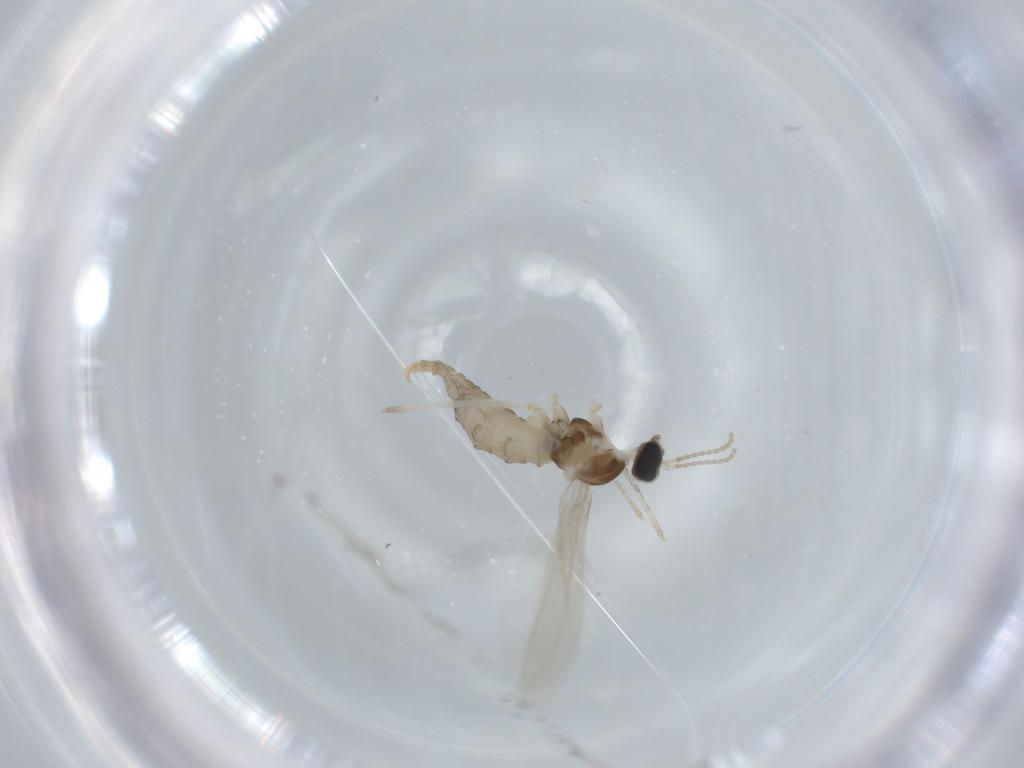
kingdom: Animalia
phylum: Arthropoda
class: Insecta
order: Diptera
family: Cecidomyiidae
